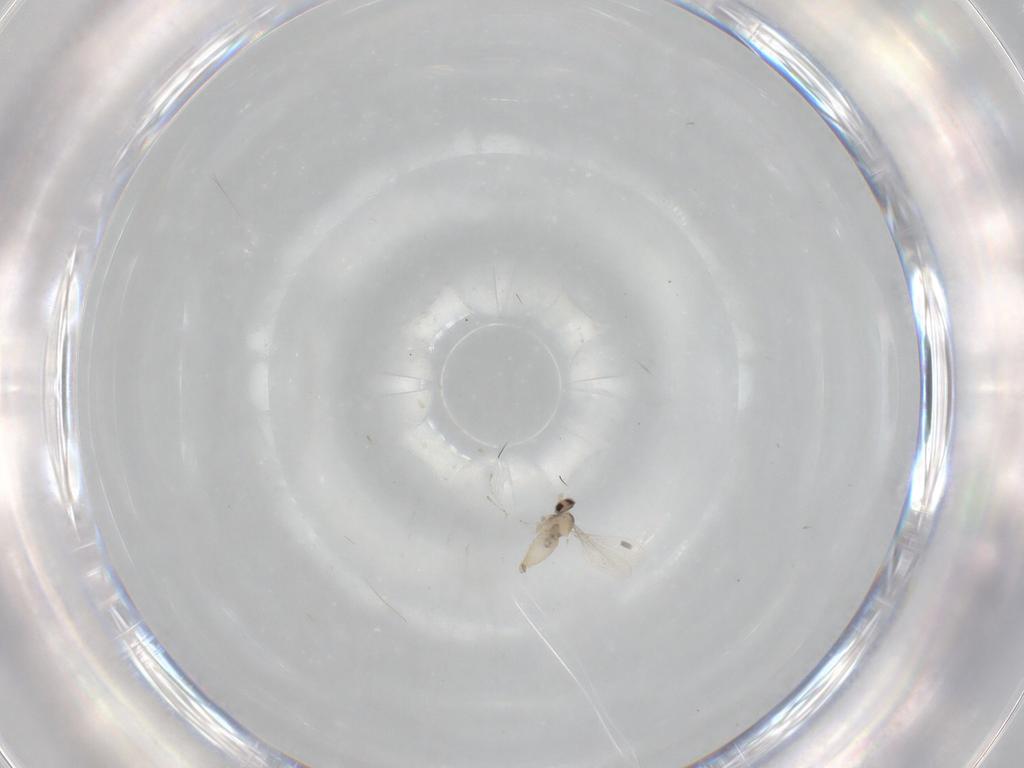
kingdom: Animalia
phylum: Arthropoda
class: Insecta
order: Diptera
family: Cecidomyiidae
